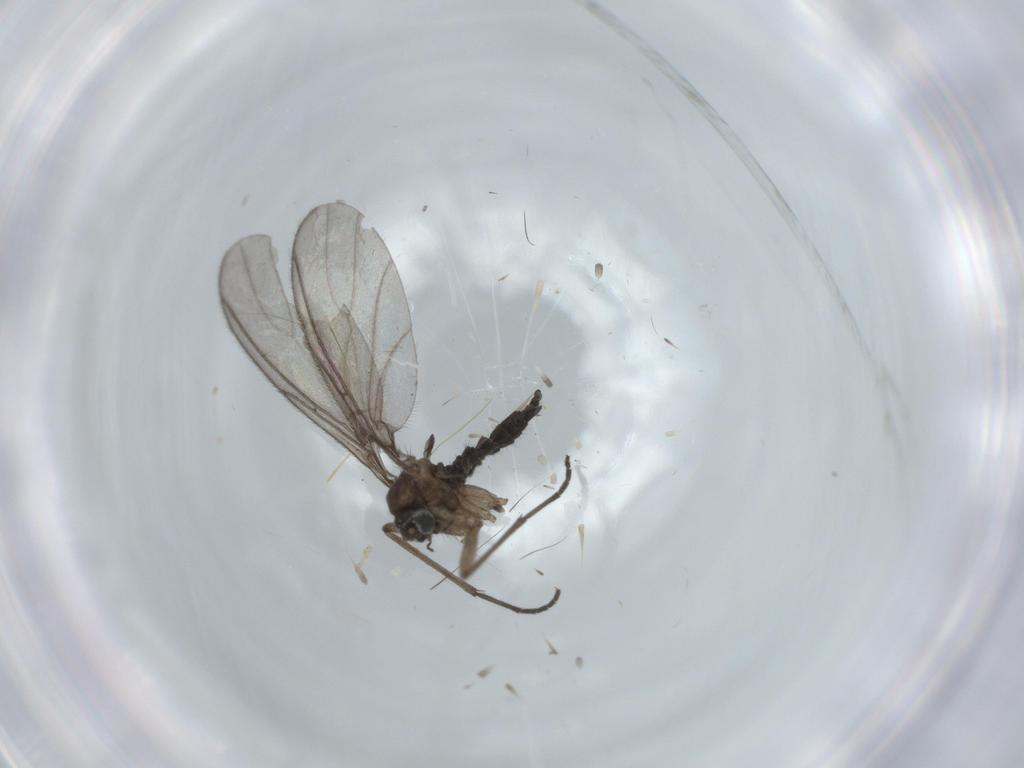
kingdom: Animalia
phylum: Arthropoda
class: Insecta
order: Diptera
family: Sciaridae
